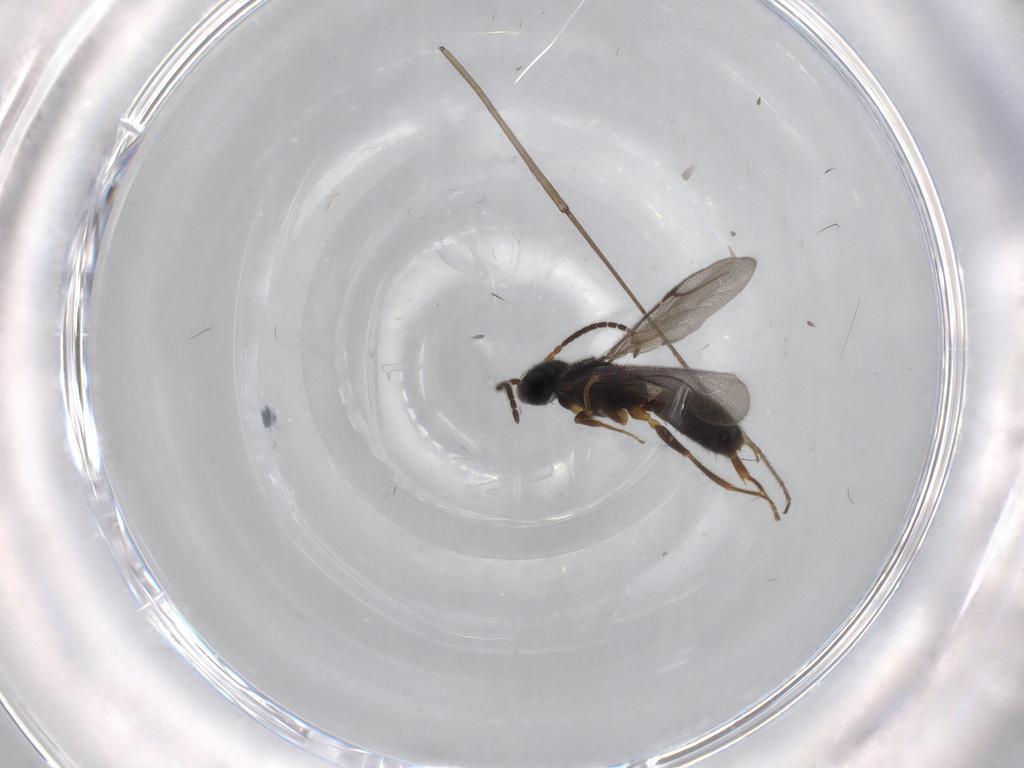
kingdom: Animalia
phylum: Arthropoda
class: Insecta
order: Hymenoptera
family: Bethylidae
